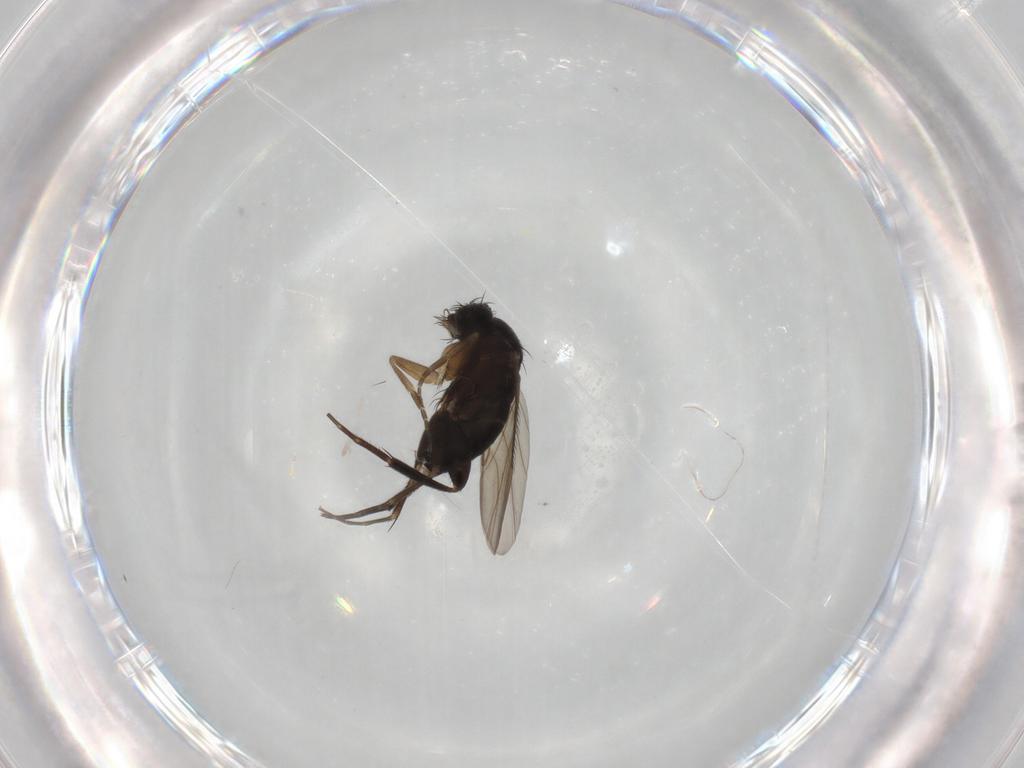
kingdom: Animalia
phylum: Arthropoda
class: Insecta
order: Diptera
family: Phoridae
